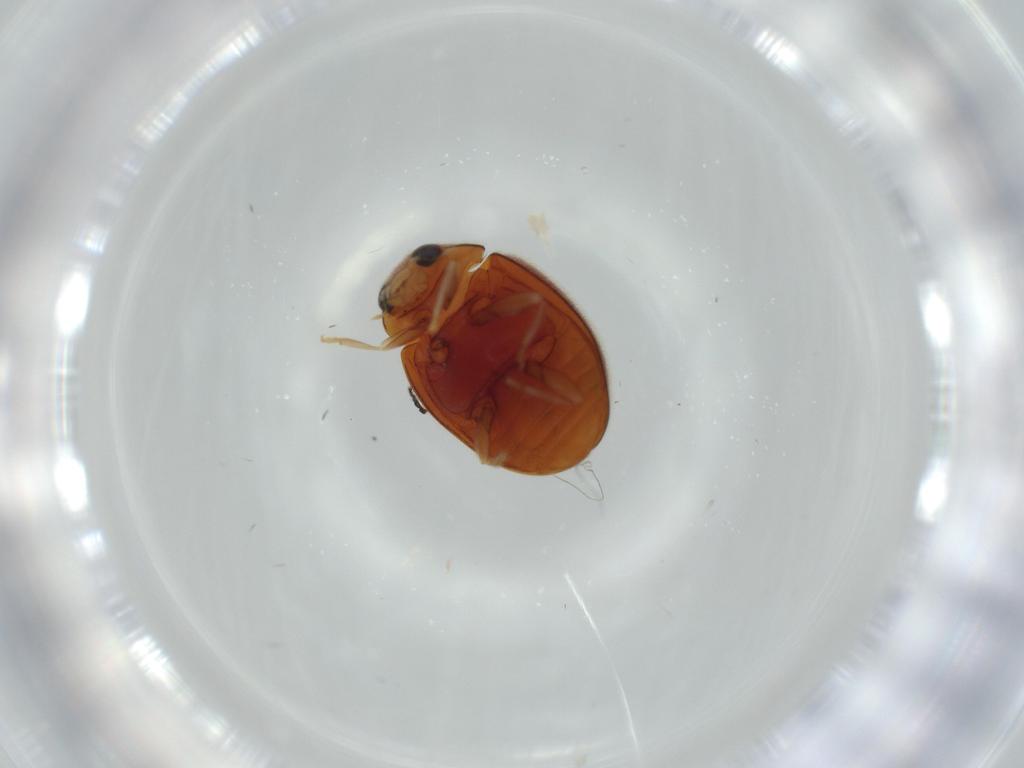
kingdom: Animalia
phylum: Arthropoda
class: Insecta
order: Coleoptera
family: Coccinellidae
